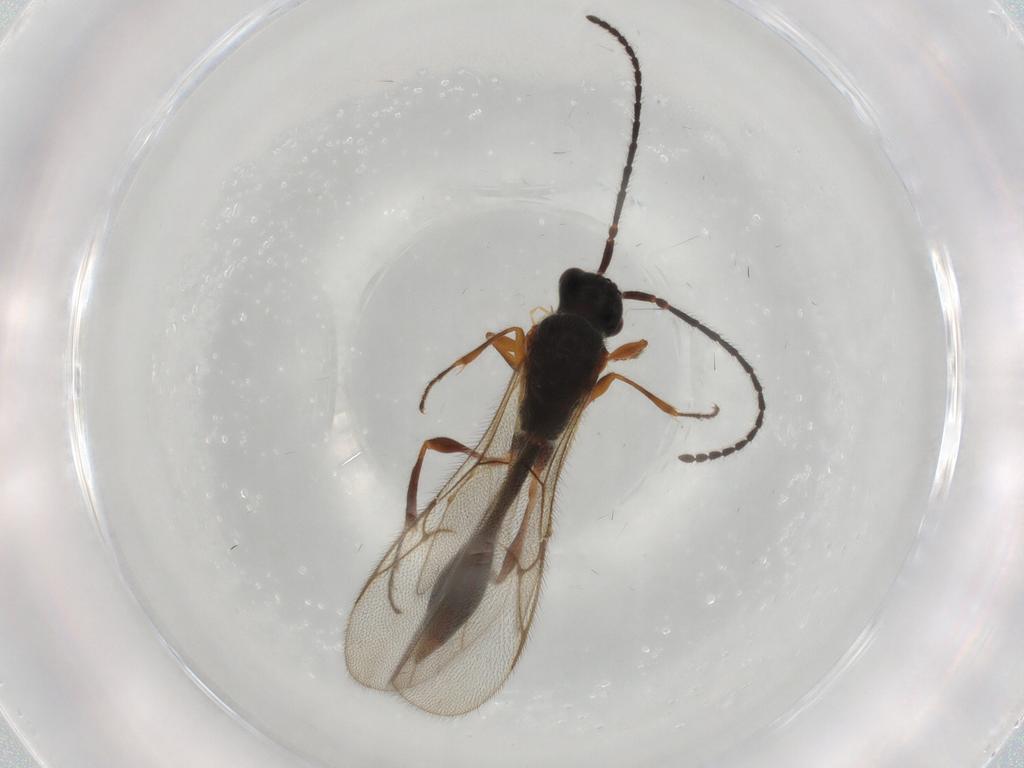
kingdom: Animalia
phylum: Arthropoda
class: Insecta
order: Hymenoptera
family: Diapriidae
